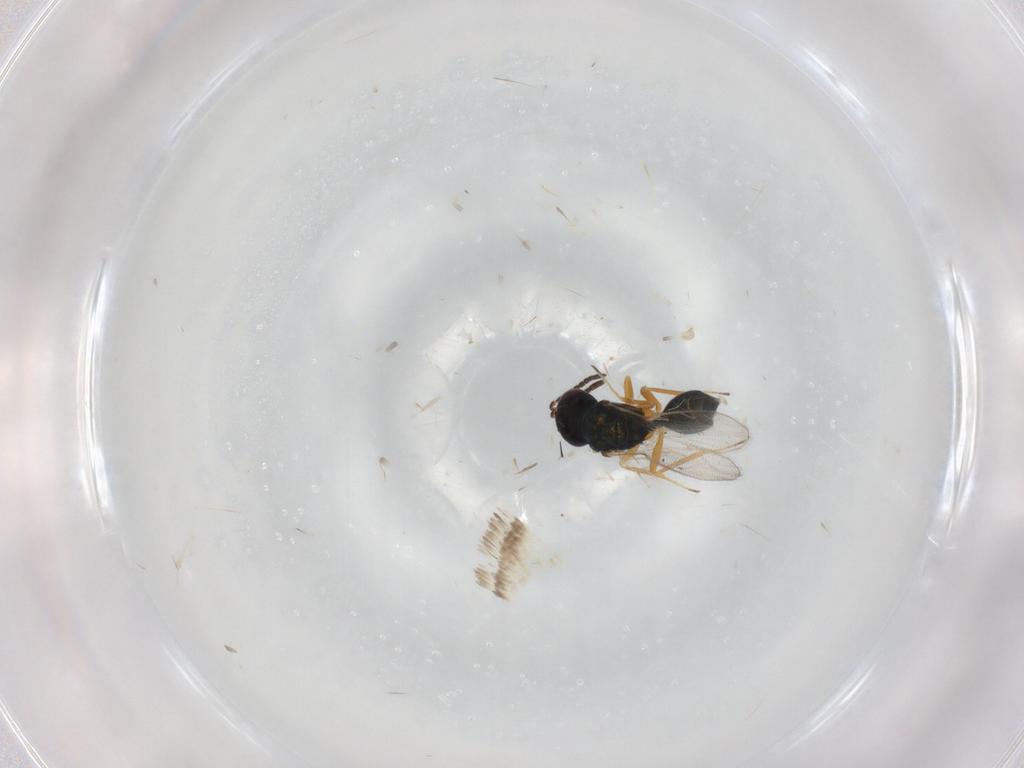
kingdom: Animalia
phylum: Arthropoda
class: Insecta
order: Hymenoptera
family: Pteromalidae
